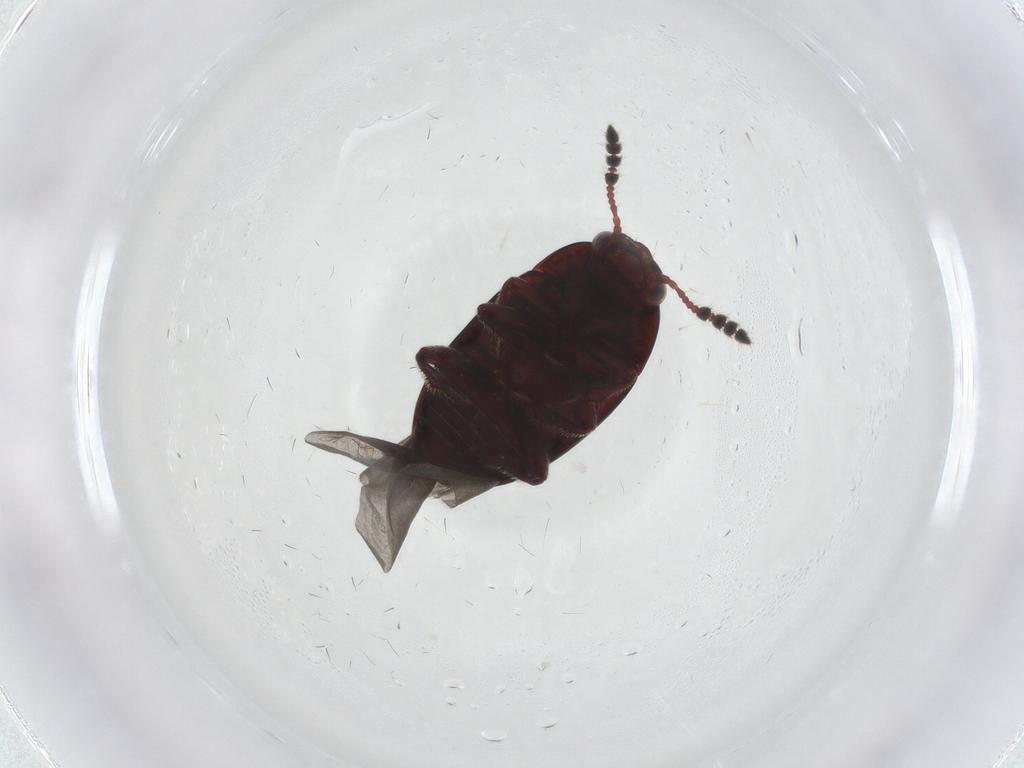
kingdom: Animalia
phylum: Arthropoda
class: Insecta
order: Coleoptera
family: Leiodidae
